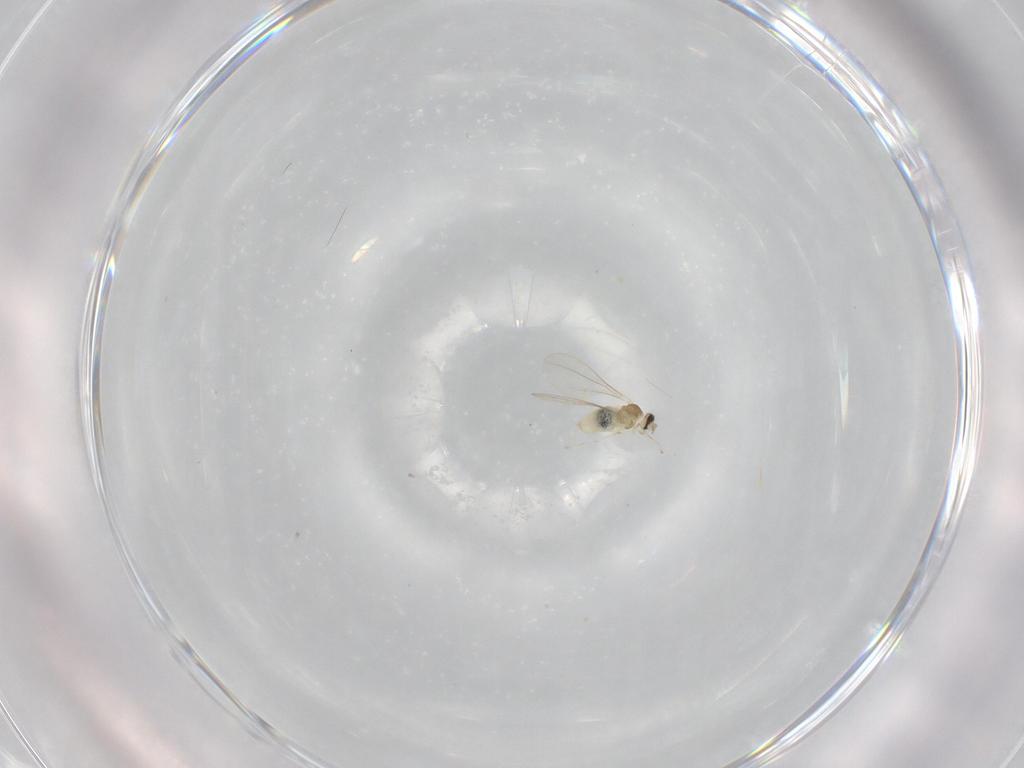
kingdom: Animalia
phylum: Arthropoda
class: Insecta
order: Diptera
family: Cecidomyiidae
